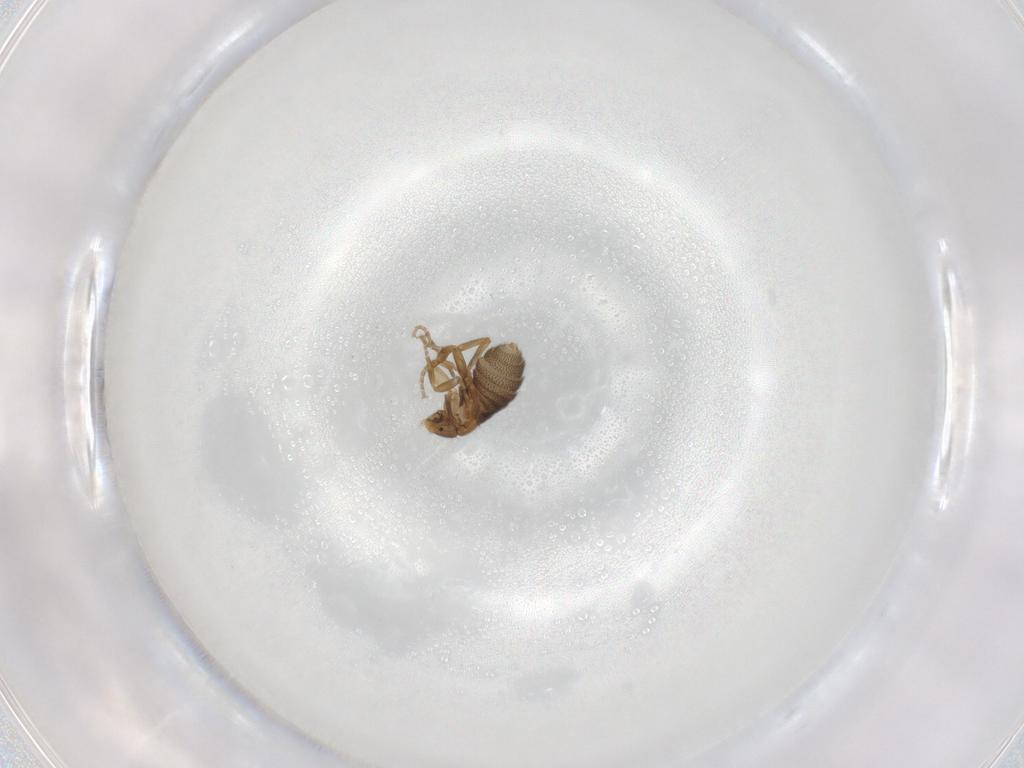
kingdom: Animalia
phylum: Arthropoda
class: Insecta
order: Diptera
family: Phoridae
